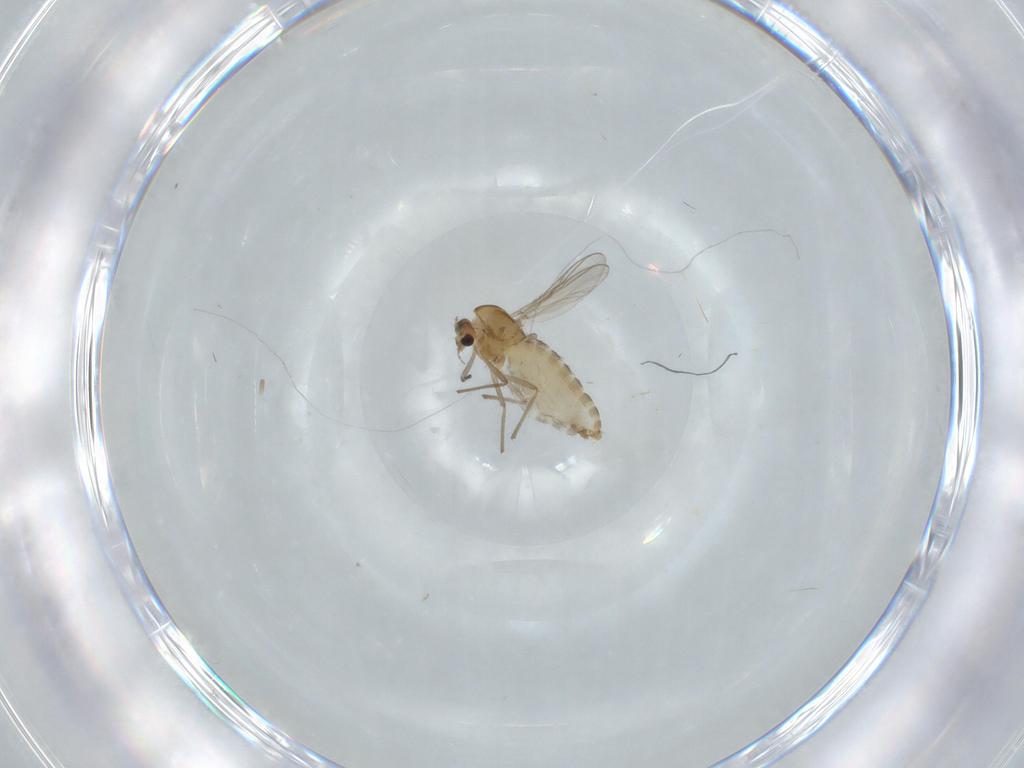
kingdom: Animalia
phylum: Arthropoda
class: Insecta
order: Diptera
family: Chironomidae
